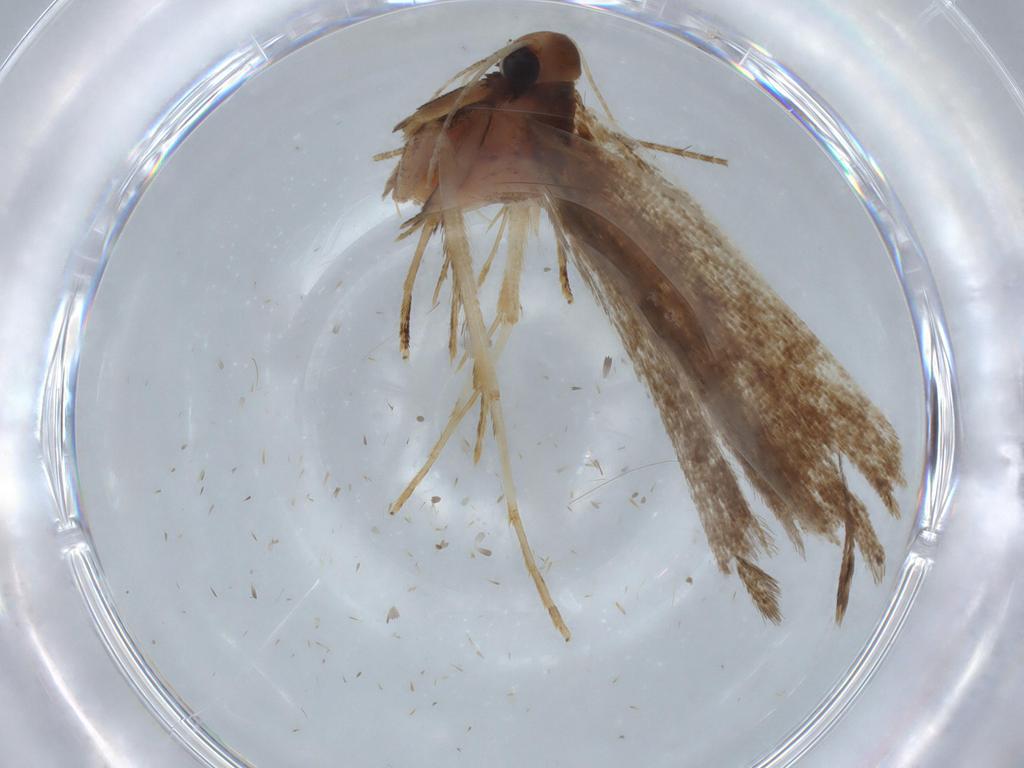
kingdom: Animalia
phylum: Arthropoda
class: Insecta
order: Lepidoptera
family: Gelechiidae
